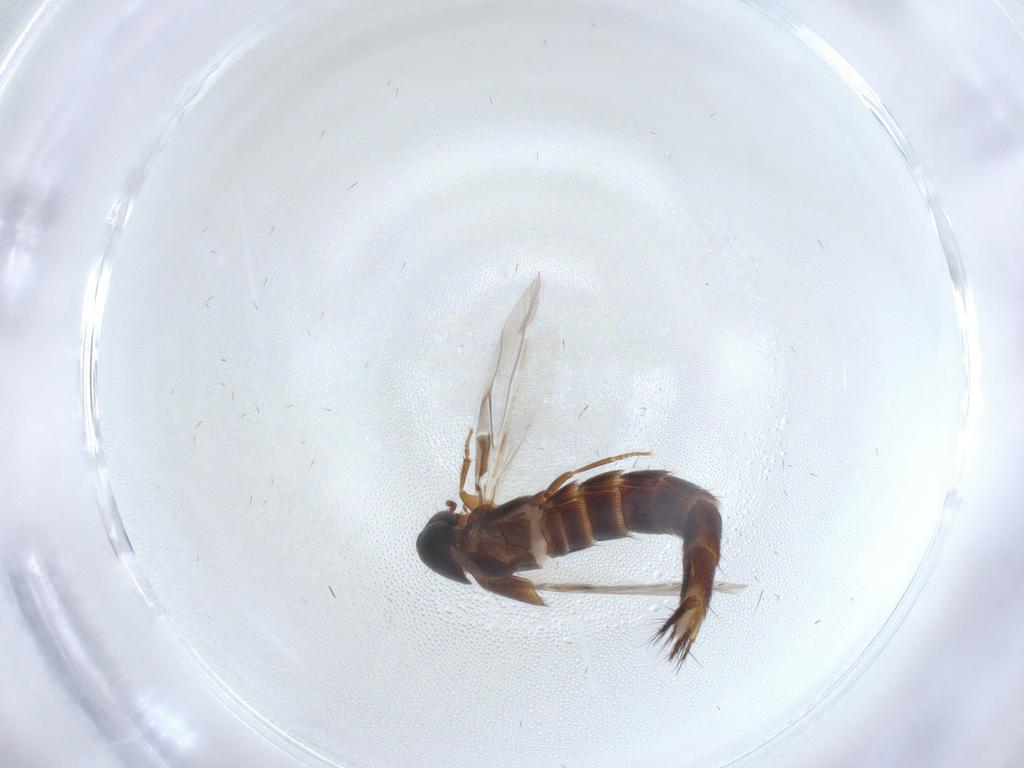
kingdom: Animalia
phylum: Arthropoda
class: Insecta
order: Coleoptera
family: Staphylinidae
